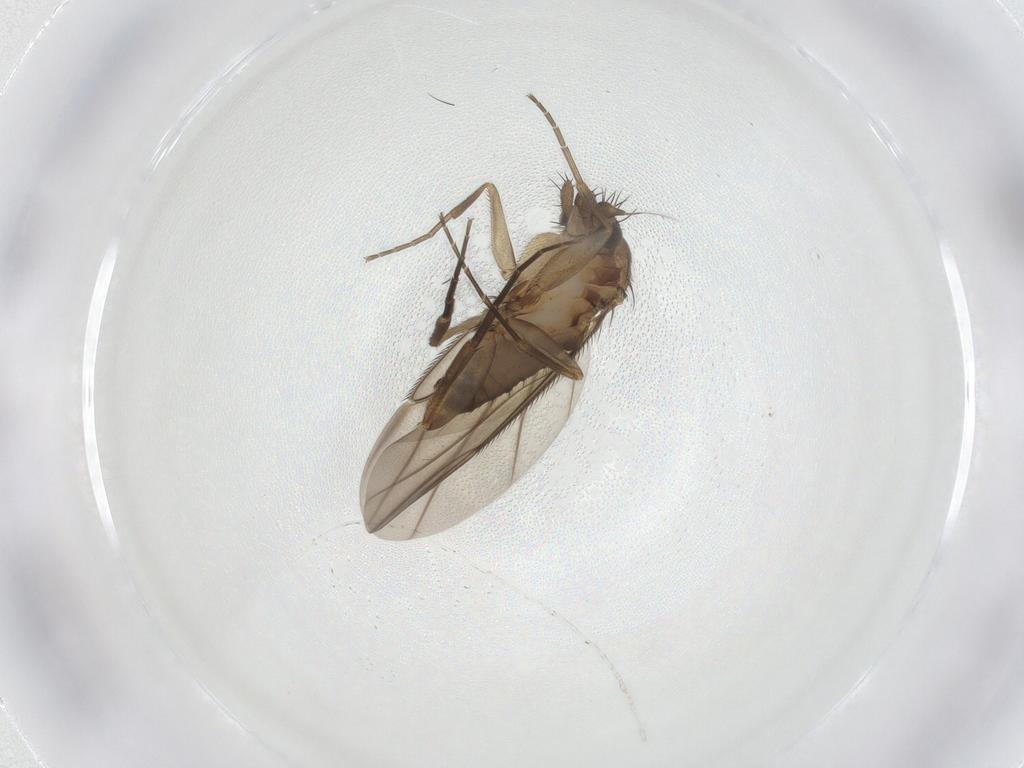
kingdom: Animalia
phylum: Arthropoda
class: Insecta
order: Diptera
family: Phoridae
